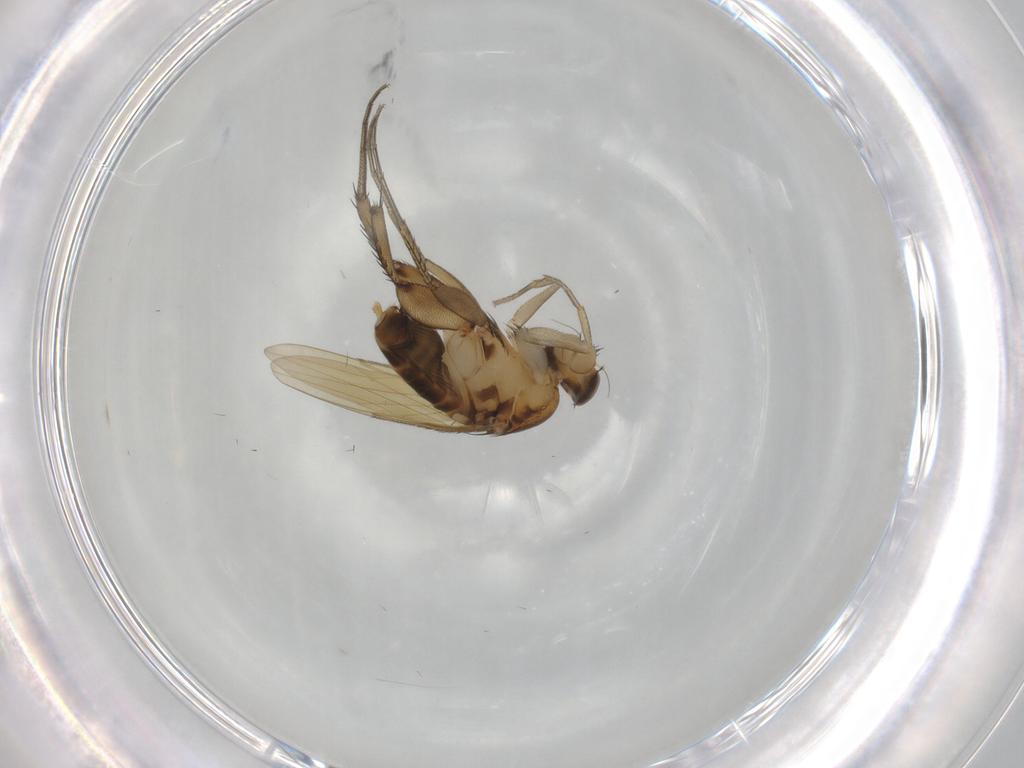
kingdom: Animalia
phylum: Arthropoda
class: Insecta
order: Diptera
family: Phoridae
